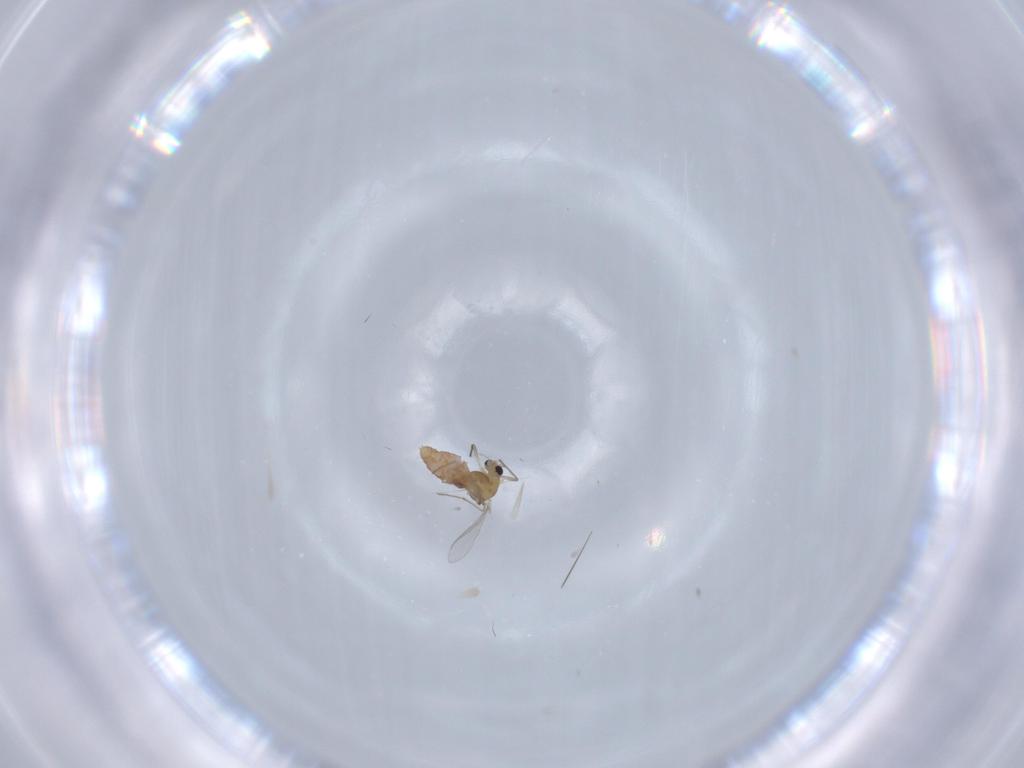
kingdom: Animalia
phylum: Arthropoda
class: Insecta
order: Diptera
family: Chironomidae
